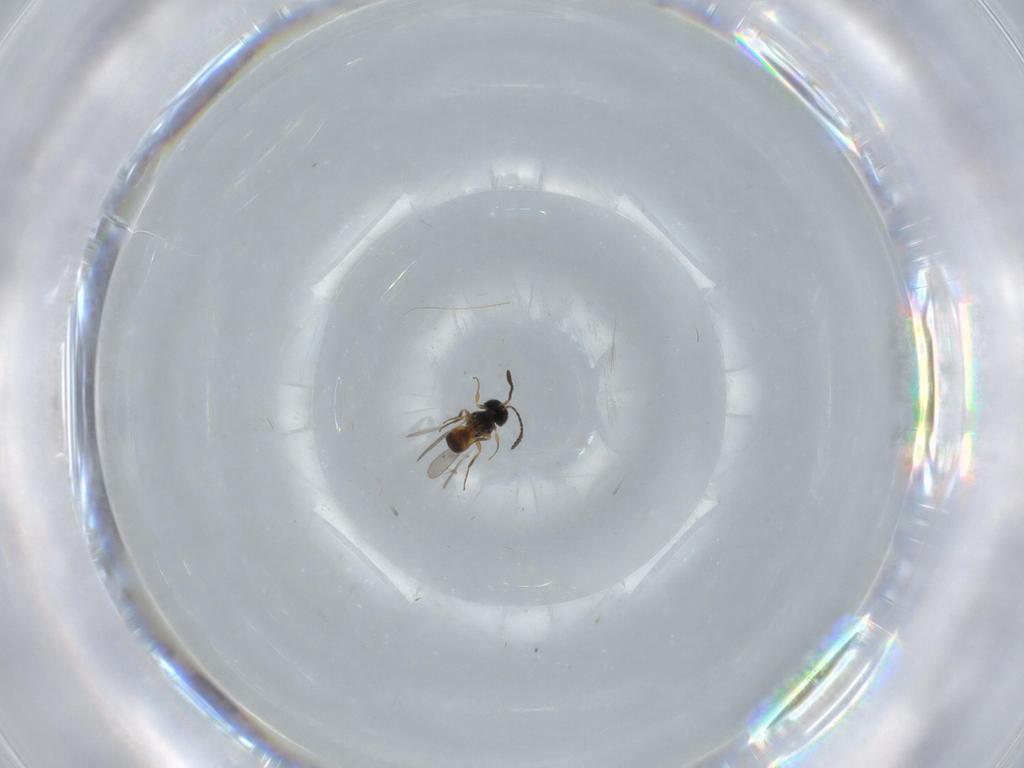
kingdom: Animalia
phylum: Arthropoda
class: Insecta
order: Hymenoptera
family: Scelionidae
